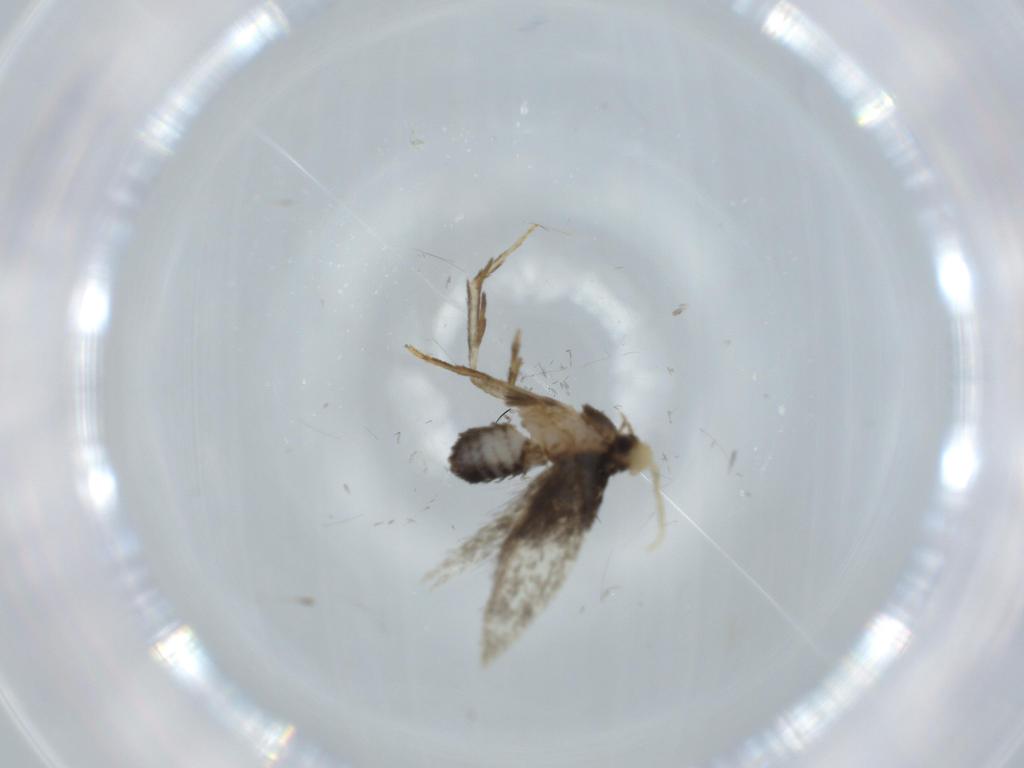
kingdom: Animalia
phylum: Arthropoda
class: Insecta
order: Lepidoptera
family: Nepticulidae
